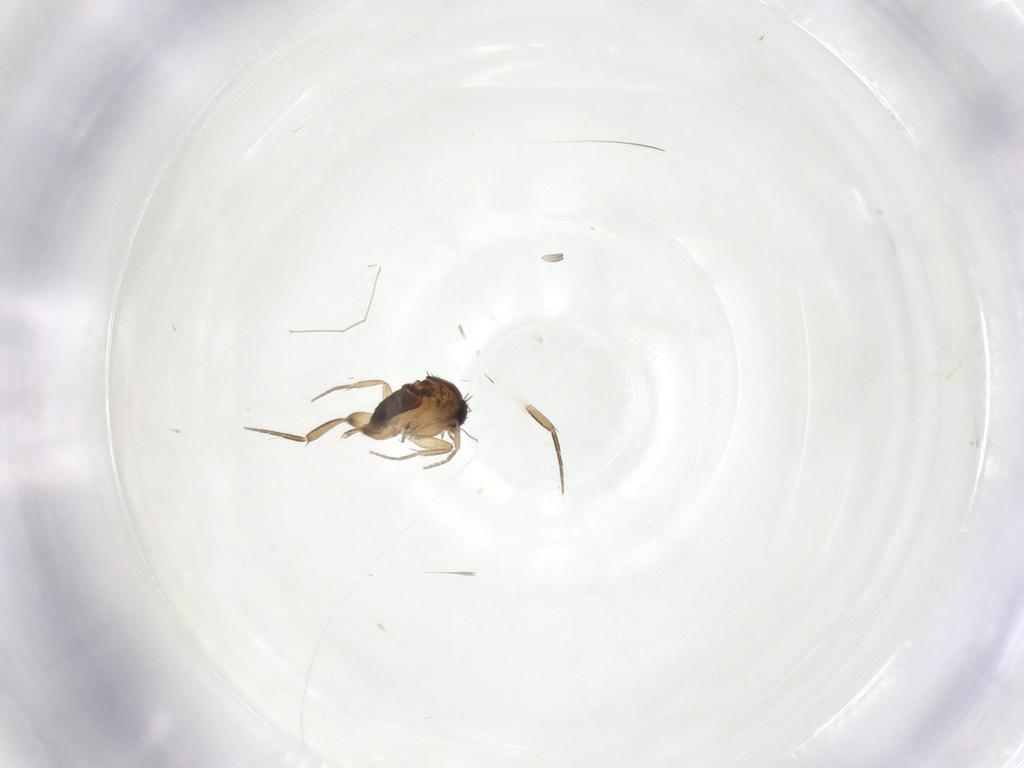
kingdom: Animalia
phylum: Arthropoda
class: Insecta
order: Diptera
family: Phoridae
